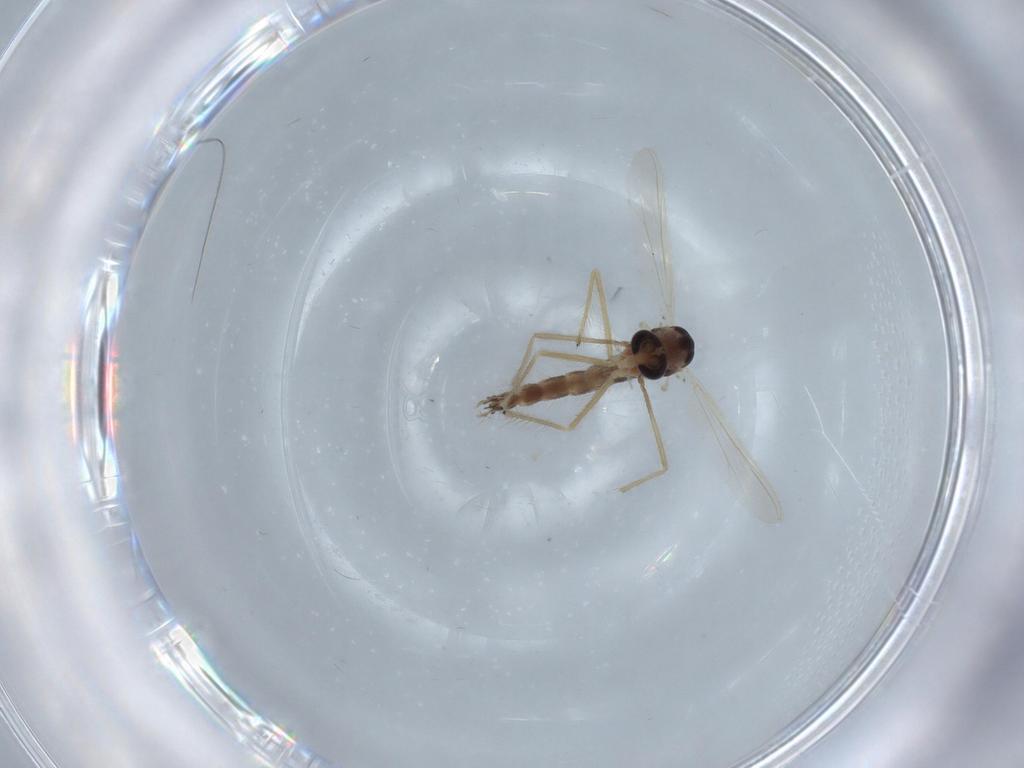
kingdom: Animalia
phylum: Arthropoda
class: Insecta
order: Diptera
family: Chironomidae
